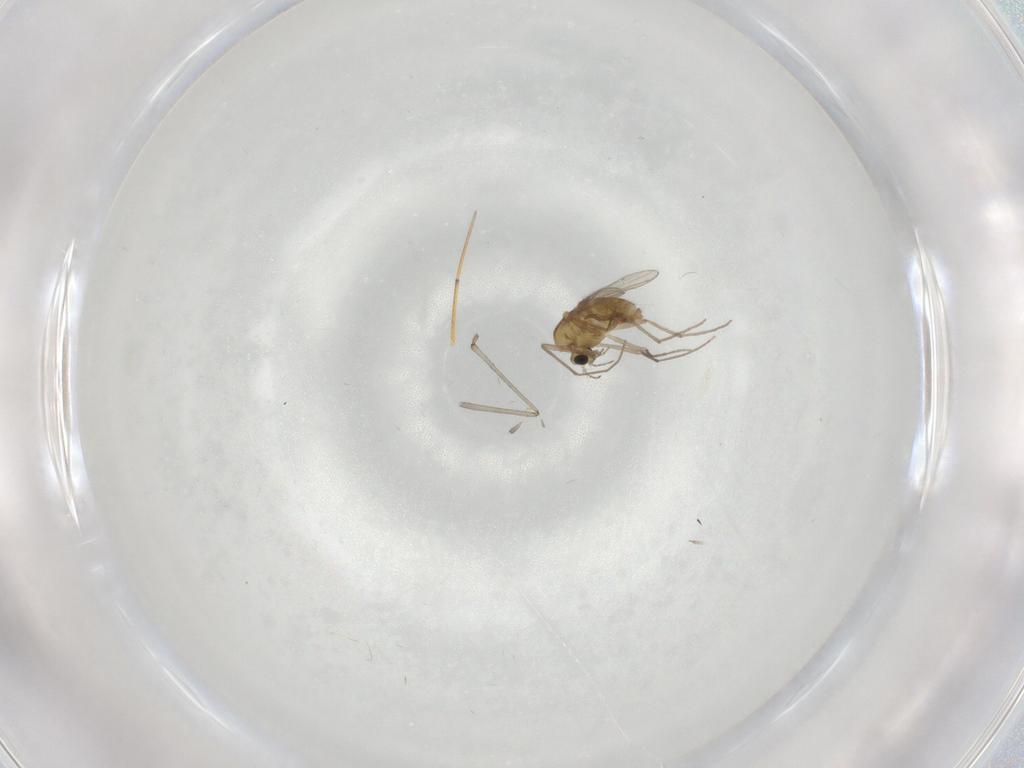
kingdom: Animalia
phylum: Arthropoda
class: Insecta
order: Diptera
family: Chironomidae
